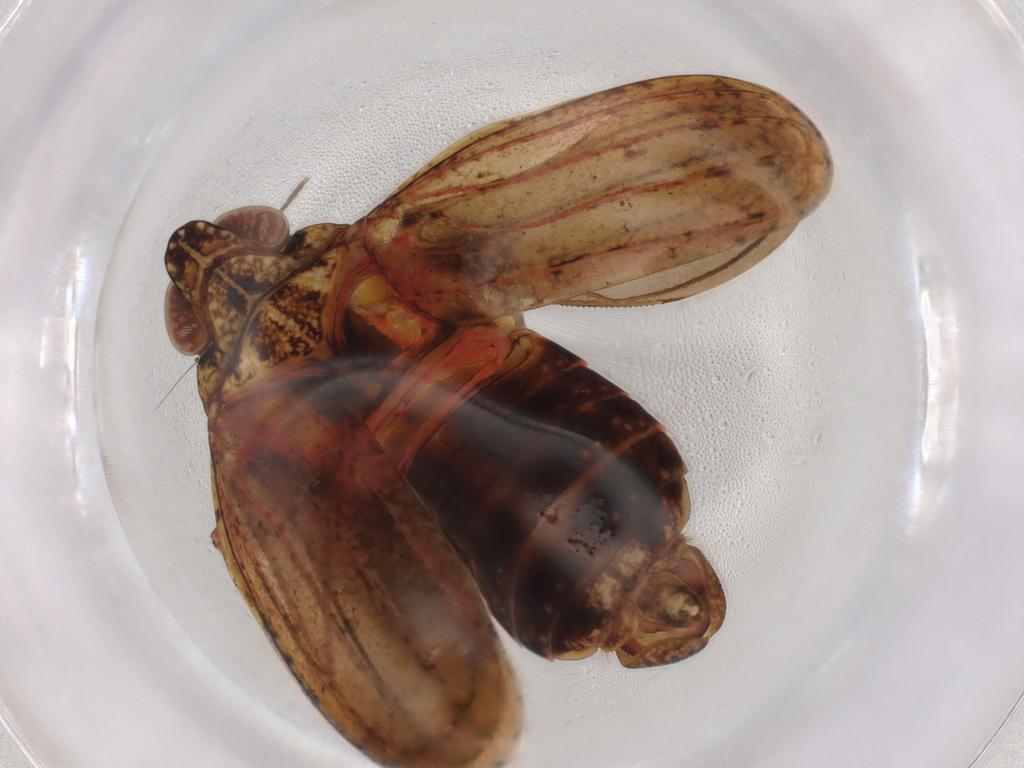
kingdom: Animalia
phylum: Arthropoda
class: Insecta
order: Hemiptera
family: Tropiduchidae
